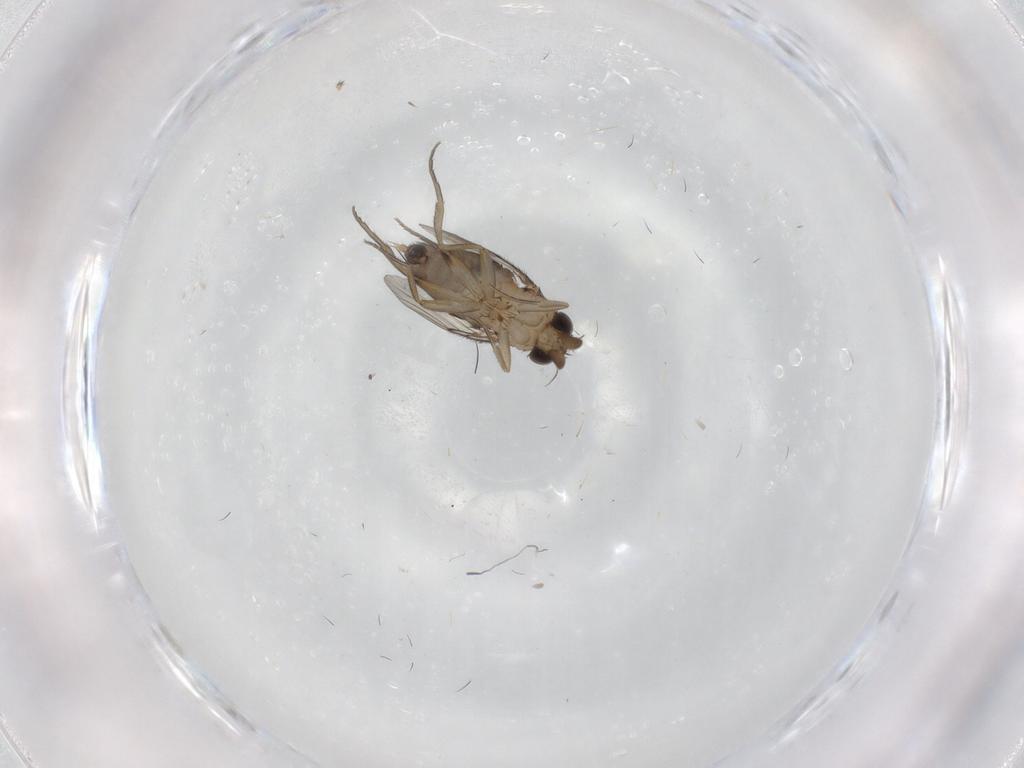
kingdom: Animalia
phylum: Arthropoda
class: Insecta
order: Diptera
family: Phoridae
